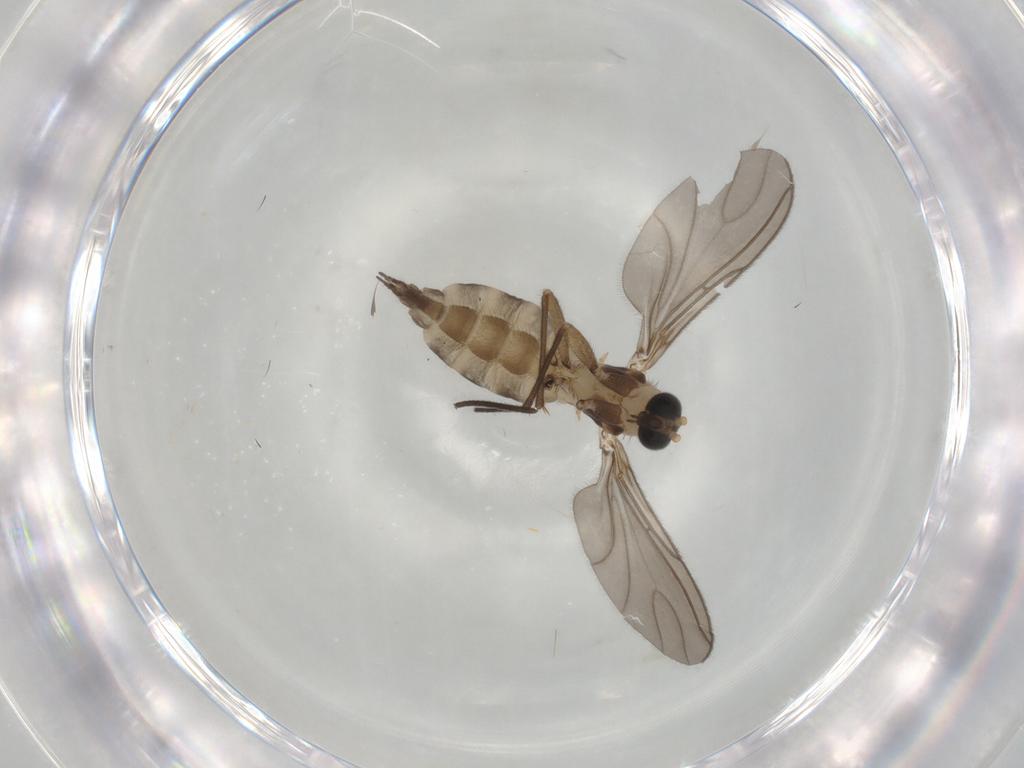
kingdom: Animalia
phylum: Arthropoda
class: Insecta
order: Diptera
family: Sciaridae
